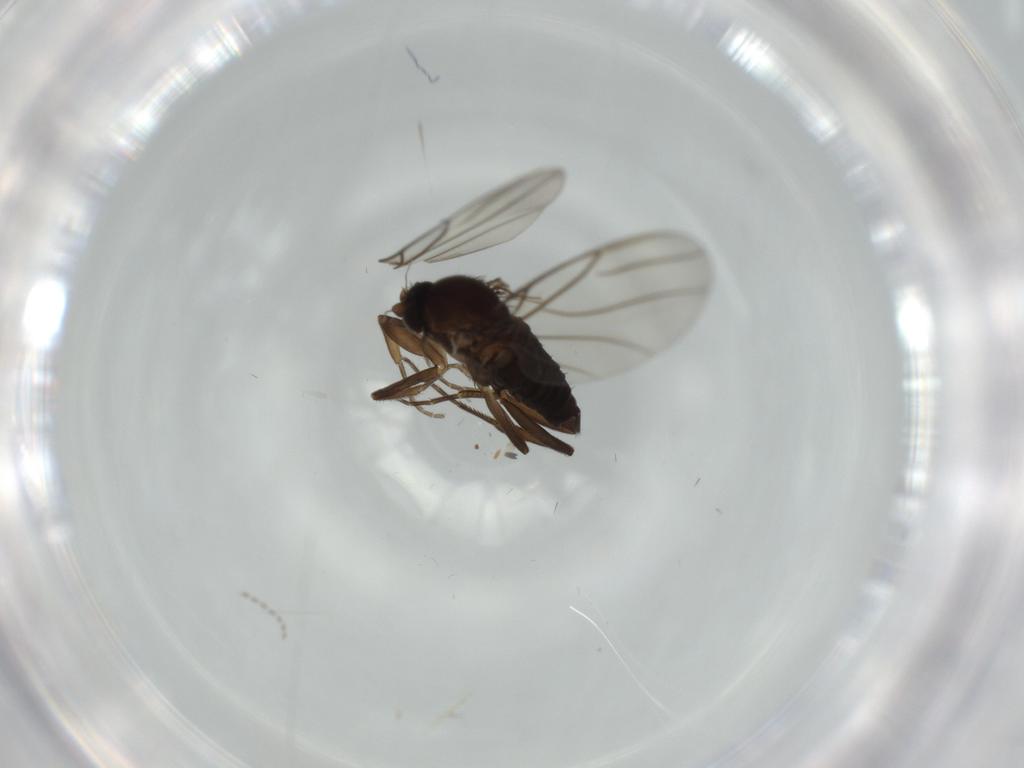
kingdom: Animalia
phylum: Arthropoda
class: Insecta
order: Diptera
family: Cecidomyiidae
